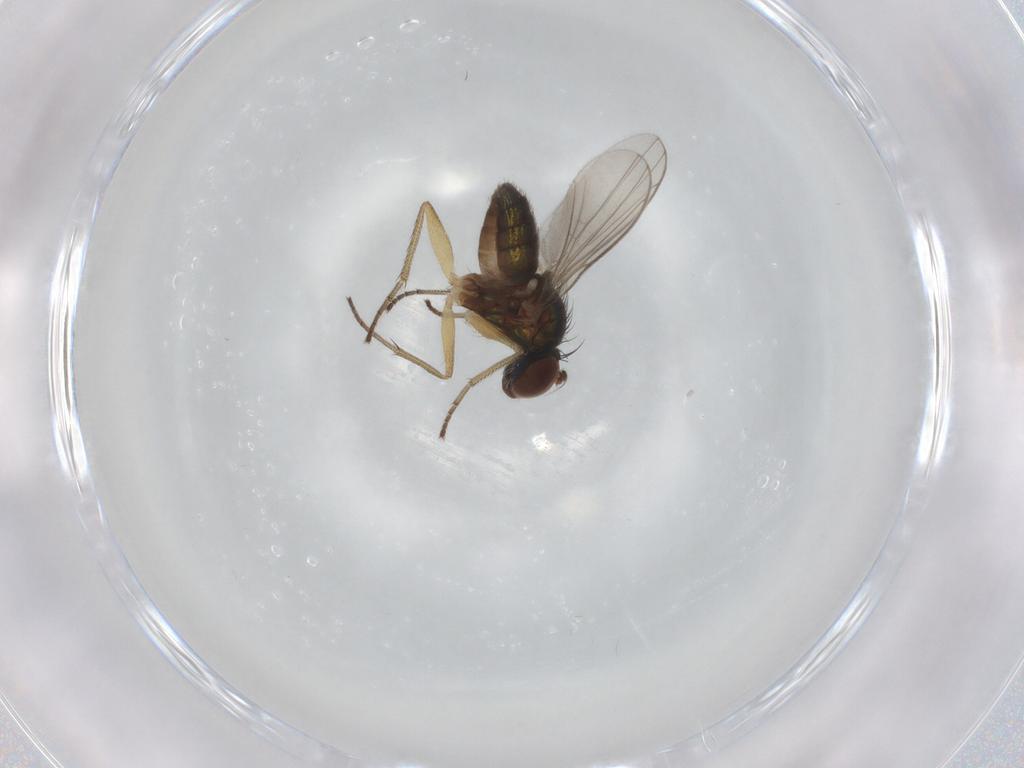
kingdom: Animalia
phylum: Arthropoda
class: Insecta
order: Diptera
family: Dolichopodidae
